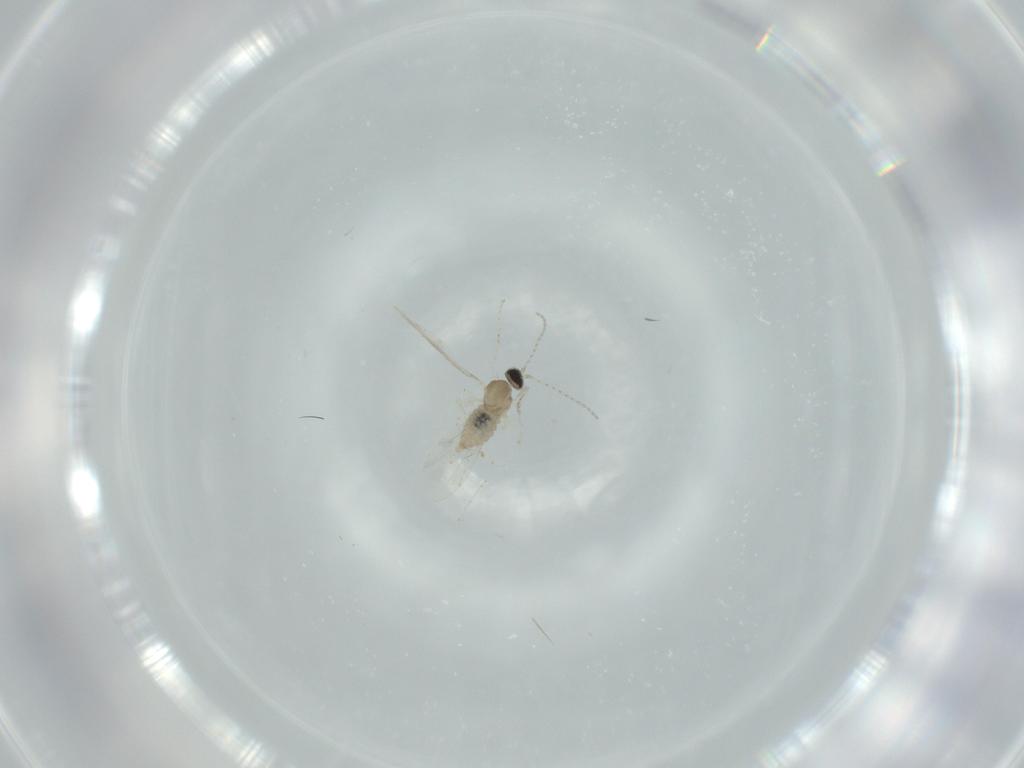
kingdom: Animalia
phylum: Arthropoda
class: Insecta
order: Diptera
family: Cecidomyiidae
